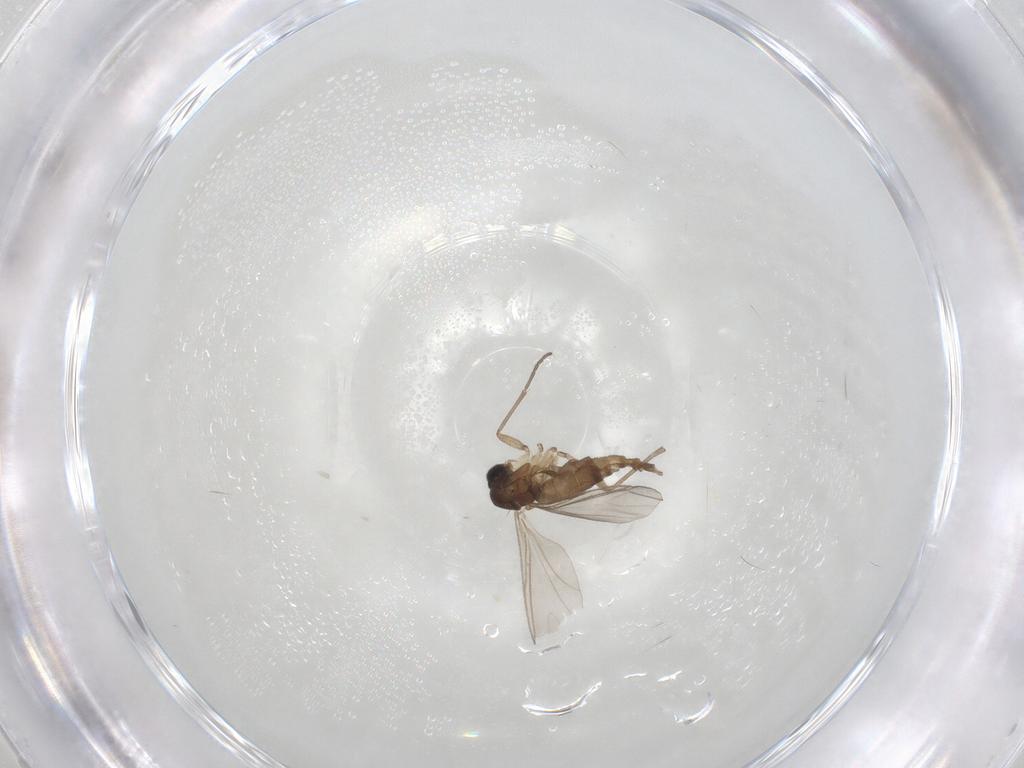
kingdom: Animalia
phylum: Arthropoda
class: Insecta
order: Diptera
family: Sciaridae
